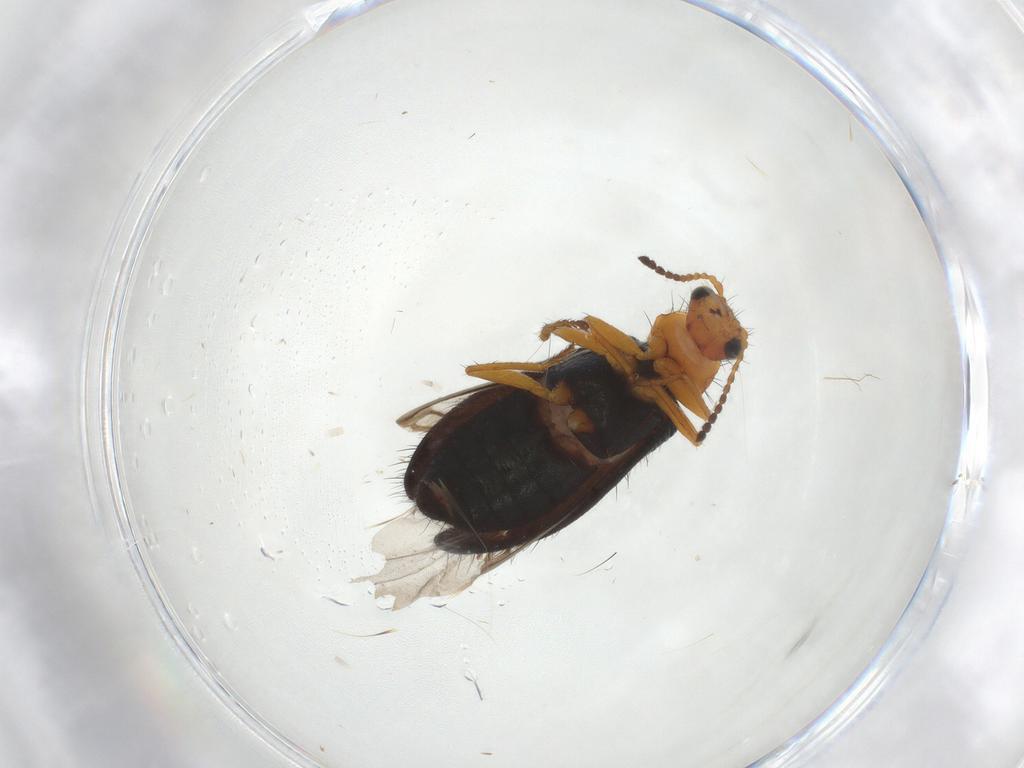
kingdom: Animalia
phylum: Arthropoda
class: Insecta
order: Coleoptera
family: Melyridae
